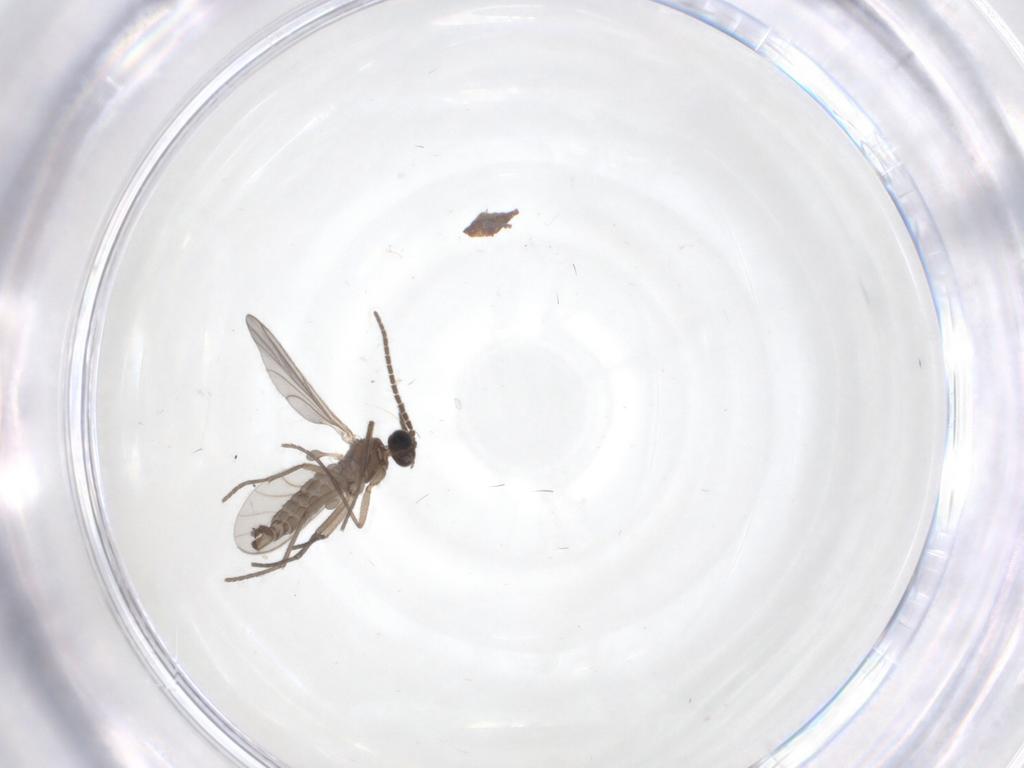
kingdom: Animalia
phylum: Arthropoda
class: Insecta
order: Diptera
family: Sciaridae
